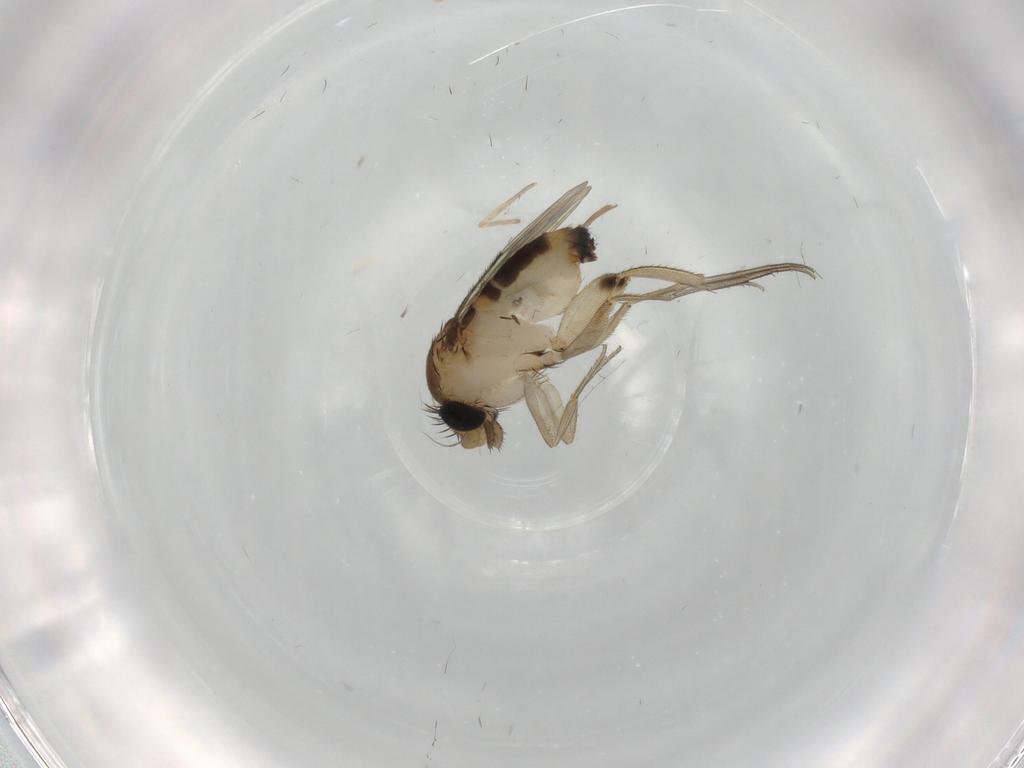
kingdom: Animalia
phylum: Arthropoda
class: Insecta
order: Diptera
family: Phoridae
